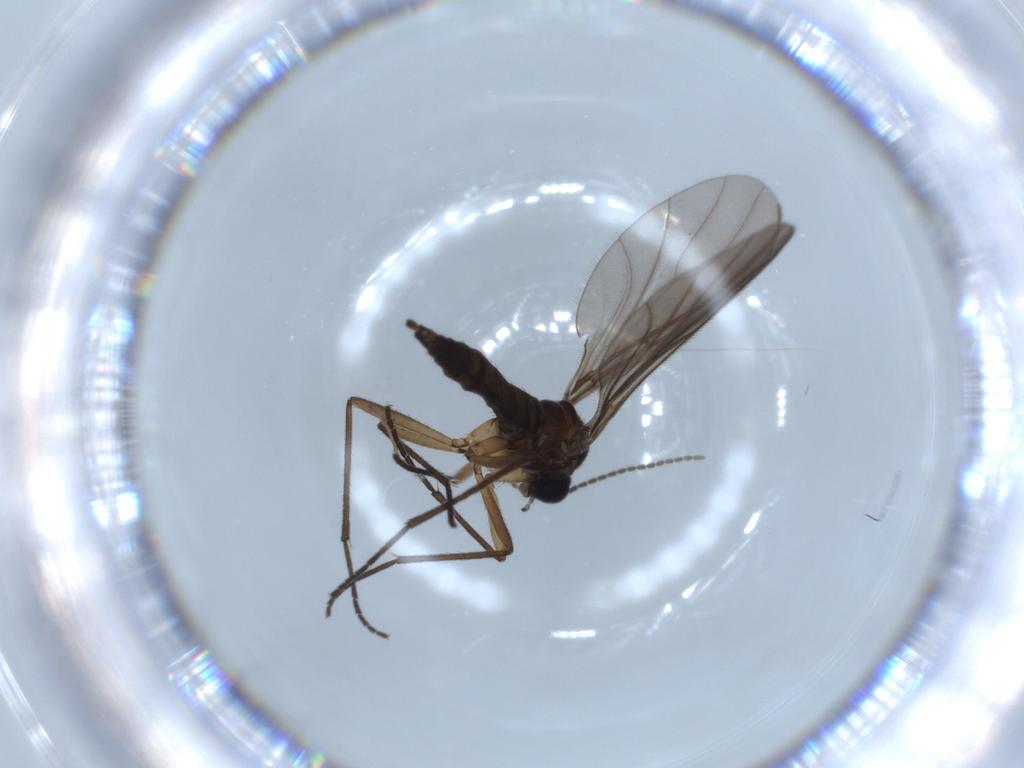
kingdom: Animalia
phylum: Arthropoda
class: Insecta
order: Diptera
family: Ceratopogonidae
